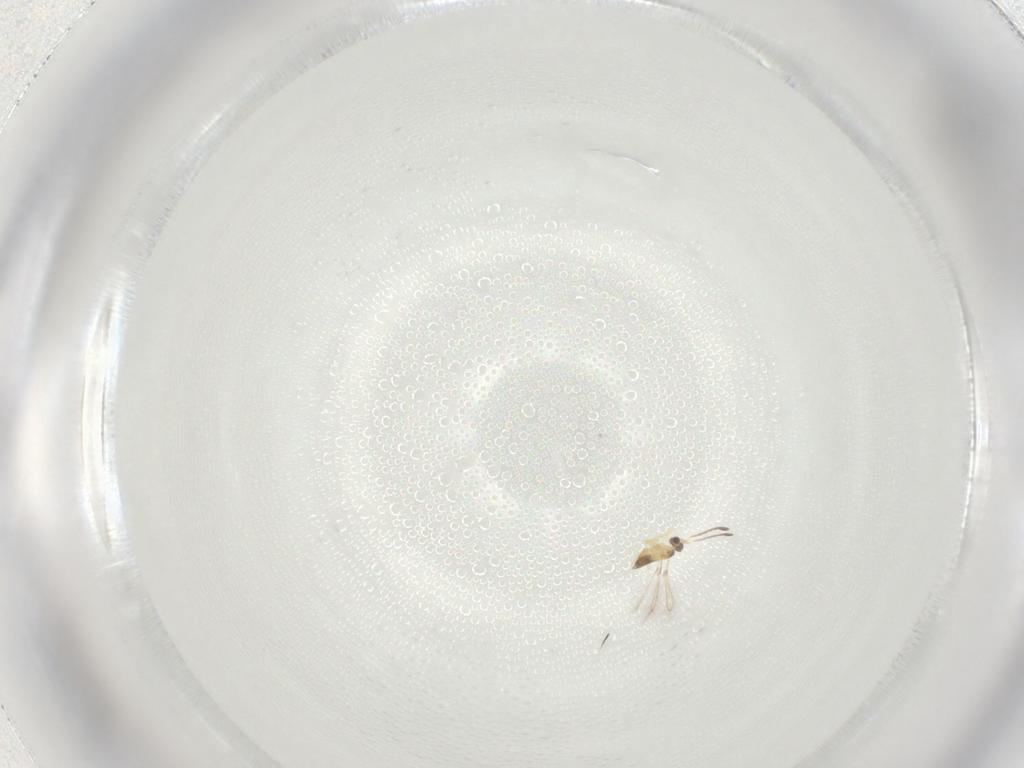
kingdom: Animalia
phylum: Arthropoda
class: Insecta
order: Hymenoptera
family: Mymaridae
